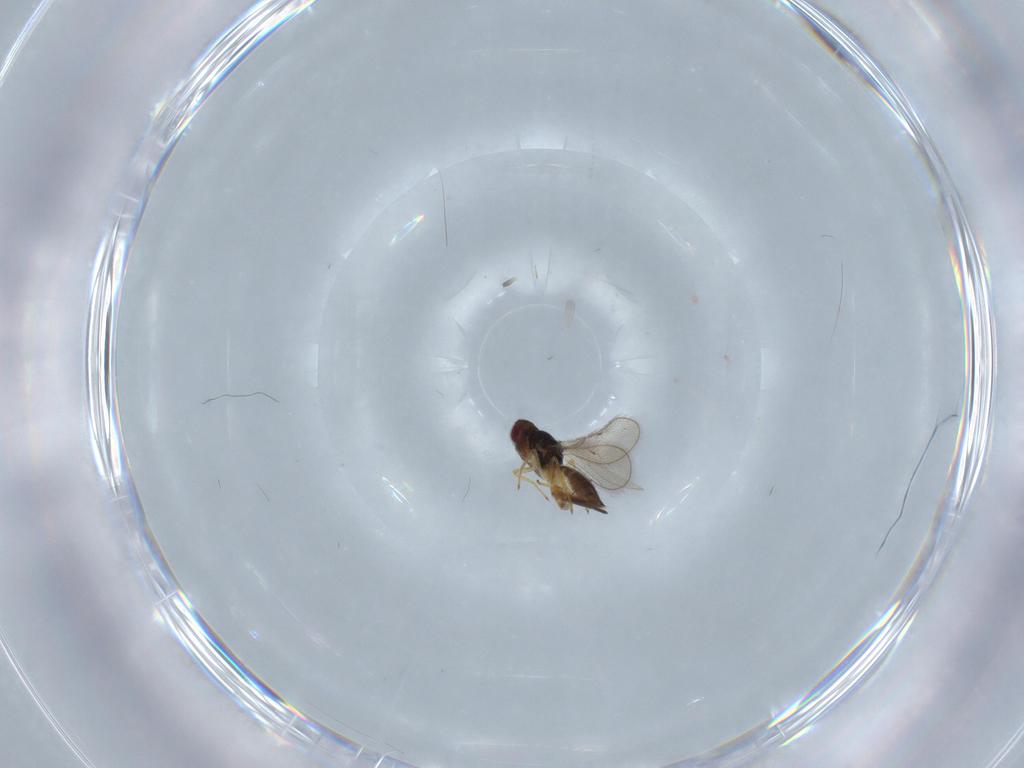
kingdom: Animalia
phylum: Arthropoda
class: Insecta
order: Hymenoptera
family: Eulophidae
